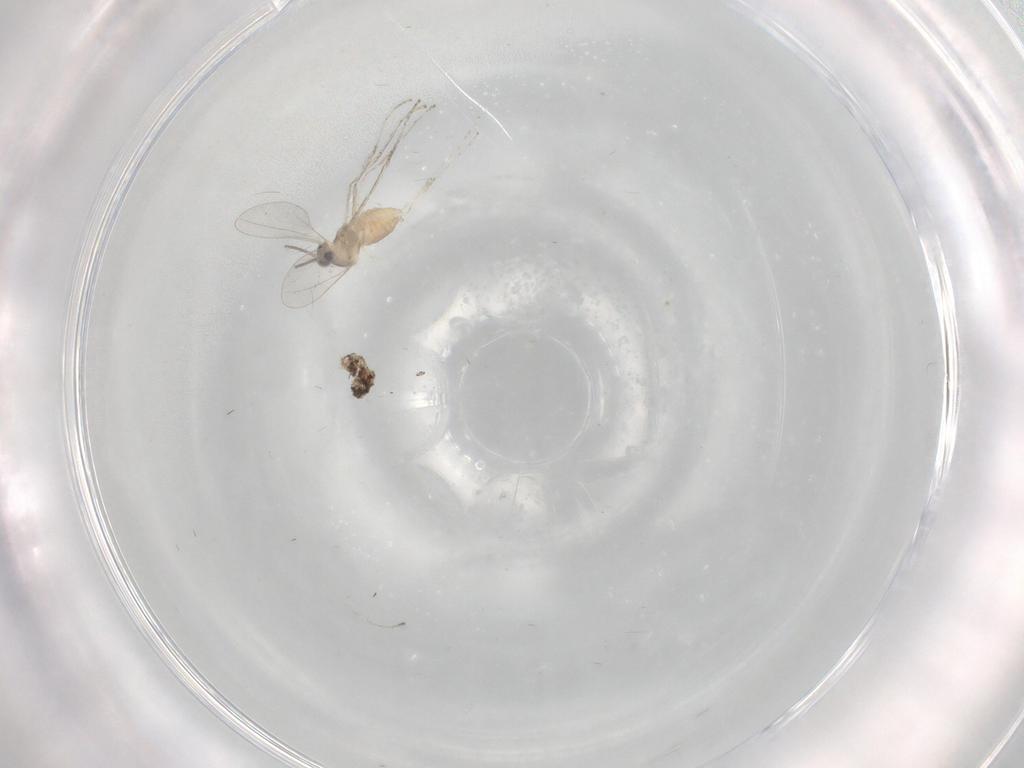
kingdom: Animalia
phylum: Arthropoda
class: Insecta
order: Diptera
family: Cecidomyiidae
